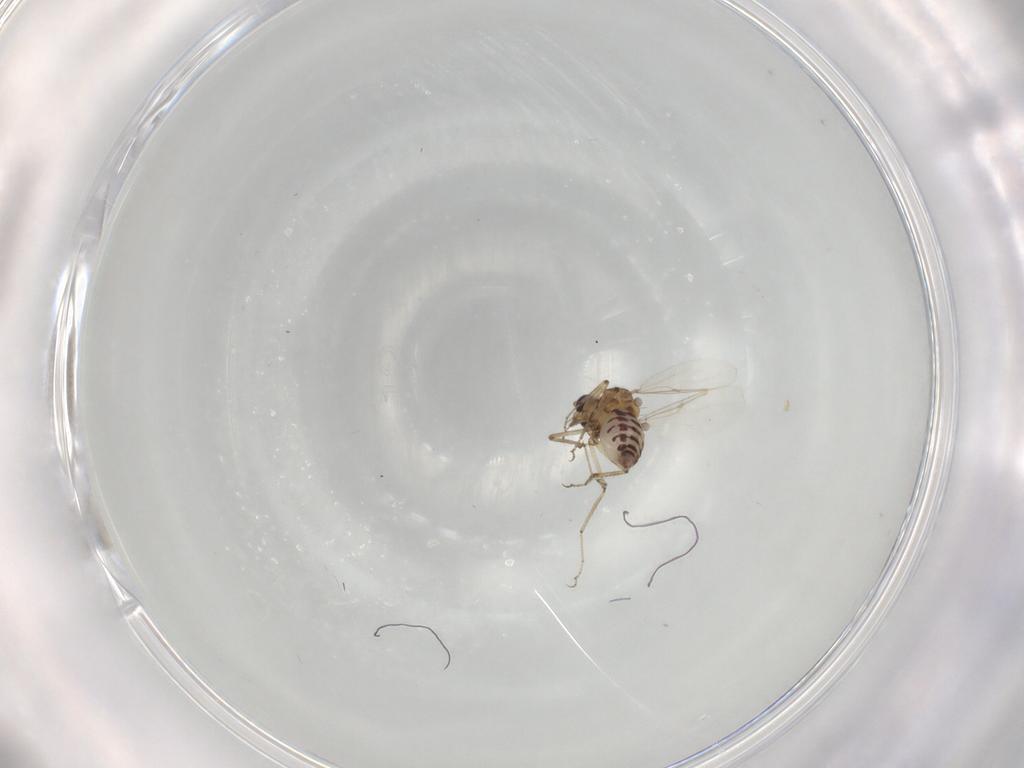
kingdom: Animalia
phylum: Arthropoda
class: Insecta
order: Diptera
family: Ceratopogonidae
